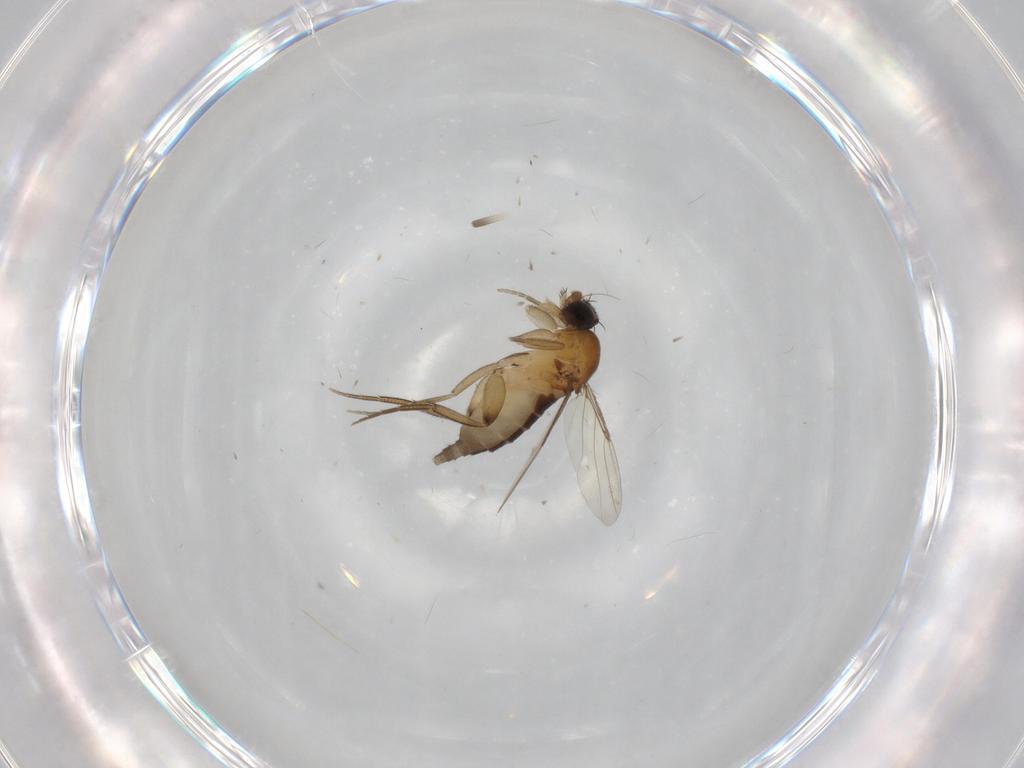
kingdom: Animalia
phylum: Arthropoda
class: Insecta
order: Diptera
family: Phoridae
